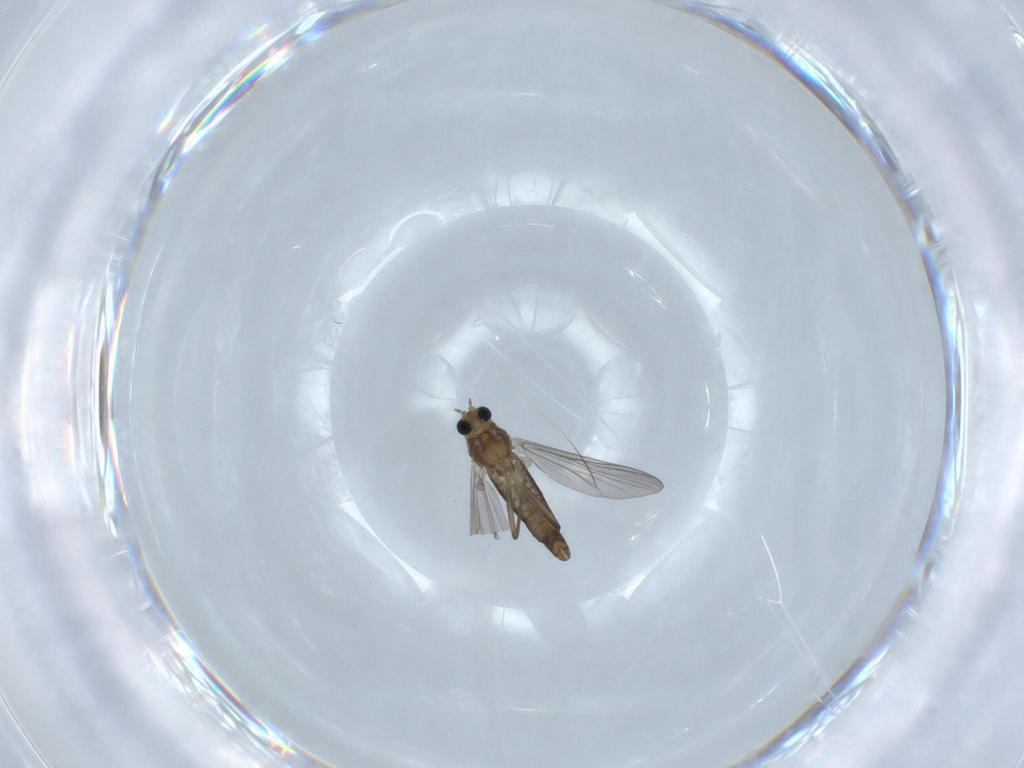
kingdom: Animalia
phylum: Arthropoda
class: Insecta
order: Diptera
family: Chironomidae
